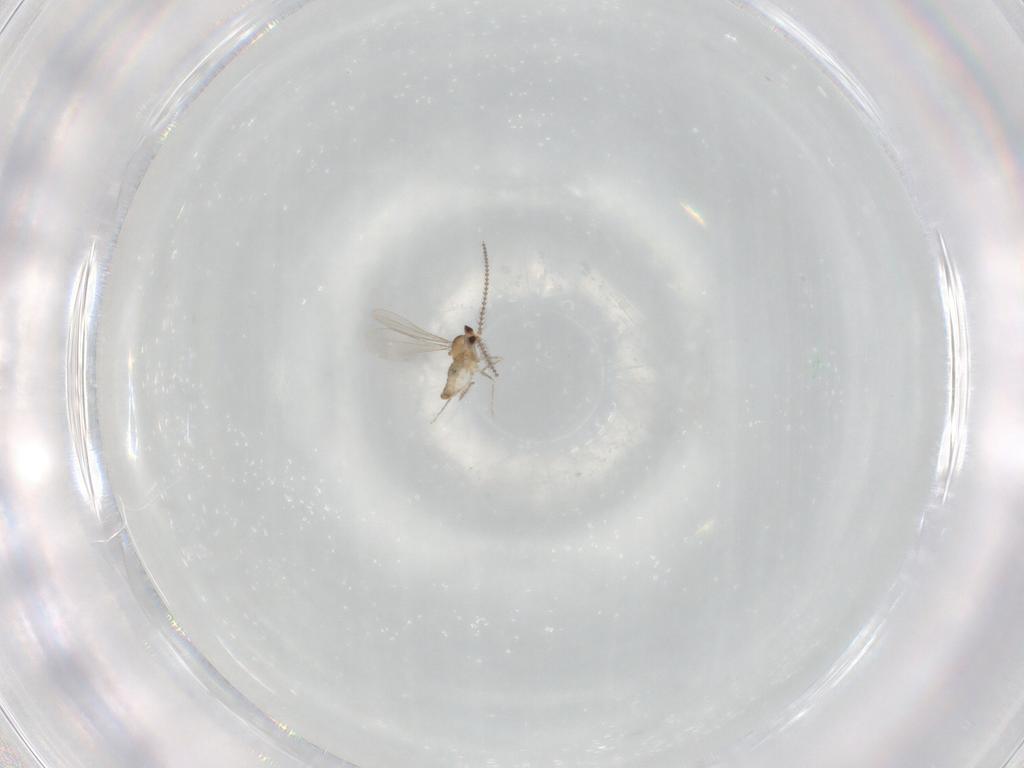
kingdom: Animalia
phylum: Arthropoda
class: Insecta
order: Diptera
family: Cecidomyiidae
